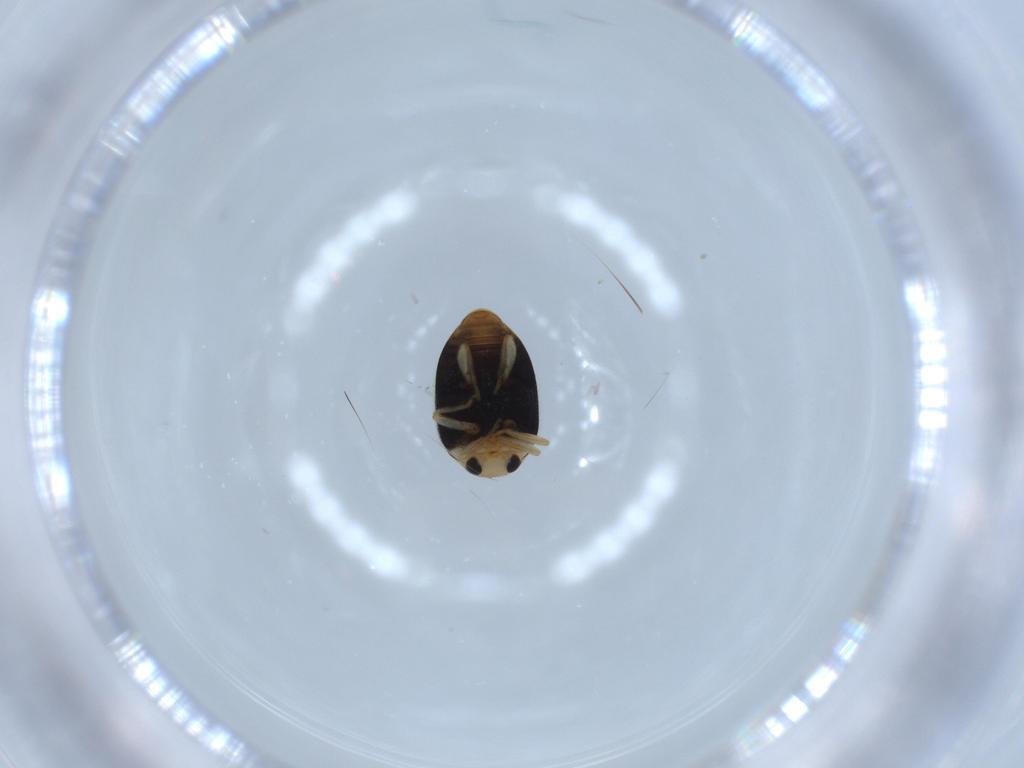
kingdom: Animalia
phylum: Arthropoda
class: Insecta
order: Coleoptera
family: Coccinellidae
